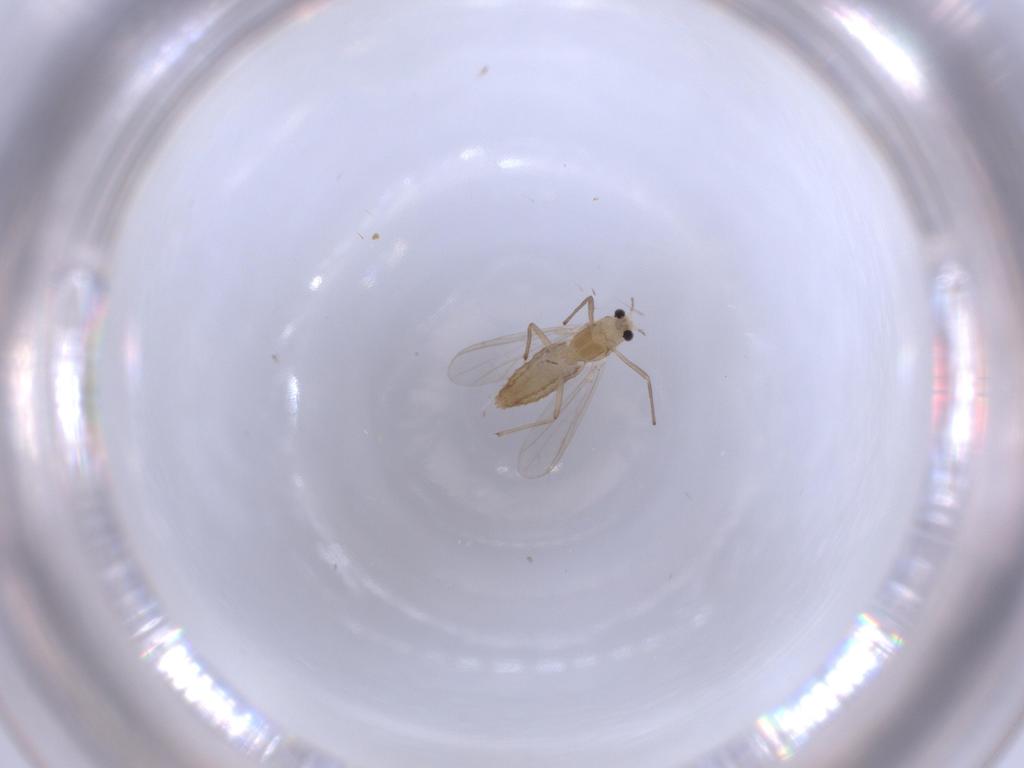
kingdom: Animalia
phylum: Arthropoda
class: Insecta
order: Diptera
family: Chironomidae
